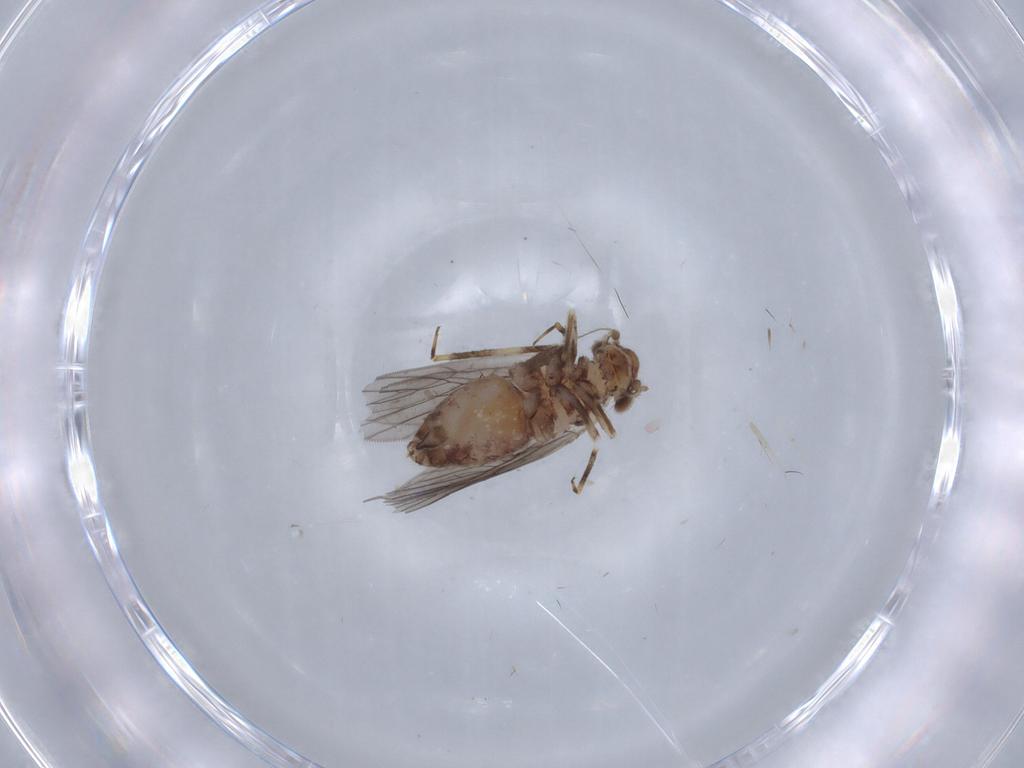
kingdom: Animalia
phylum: Arthropoda
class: Insecta
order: Psocodea
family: Lepidopsocidae
